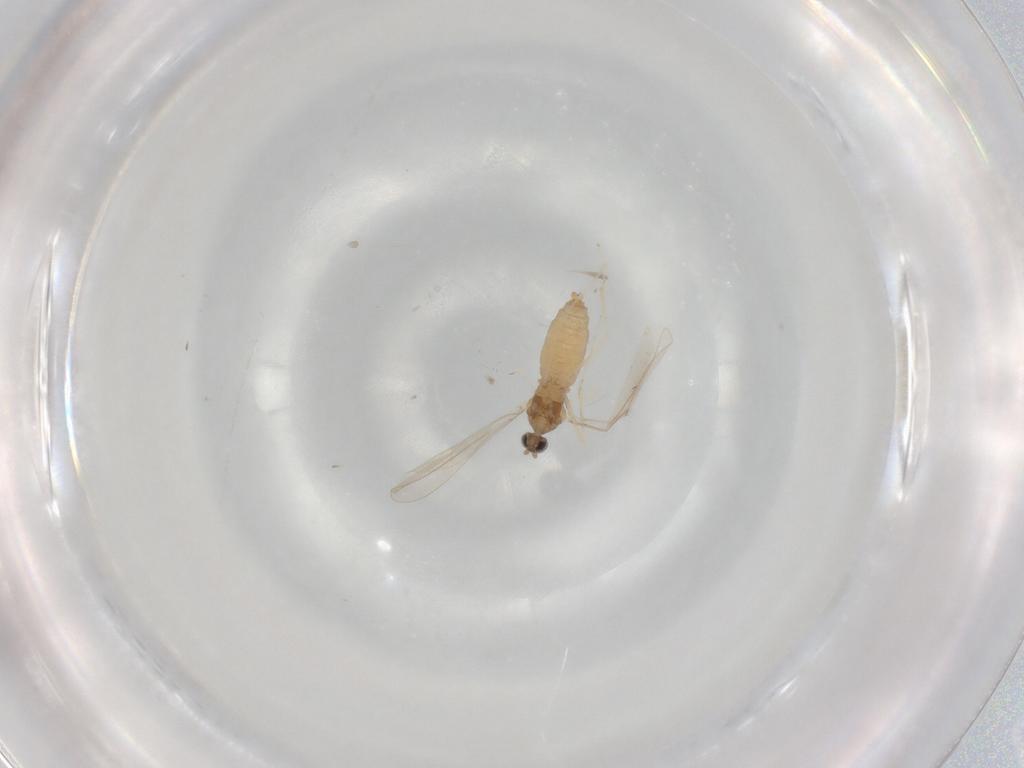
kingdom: Animalia
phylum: Arthropoda
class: Insecta
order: Diptera
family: Cecidomyiidae
